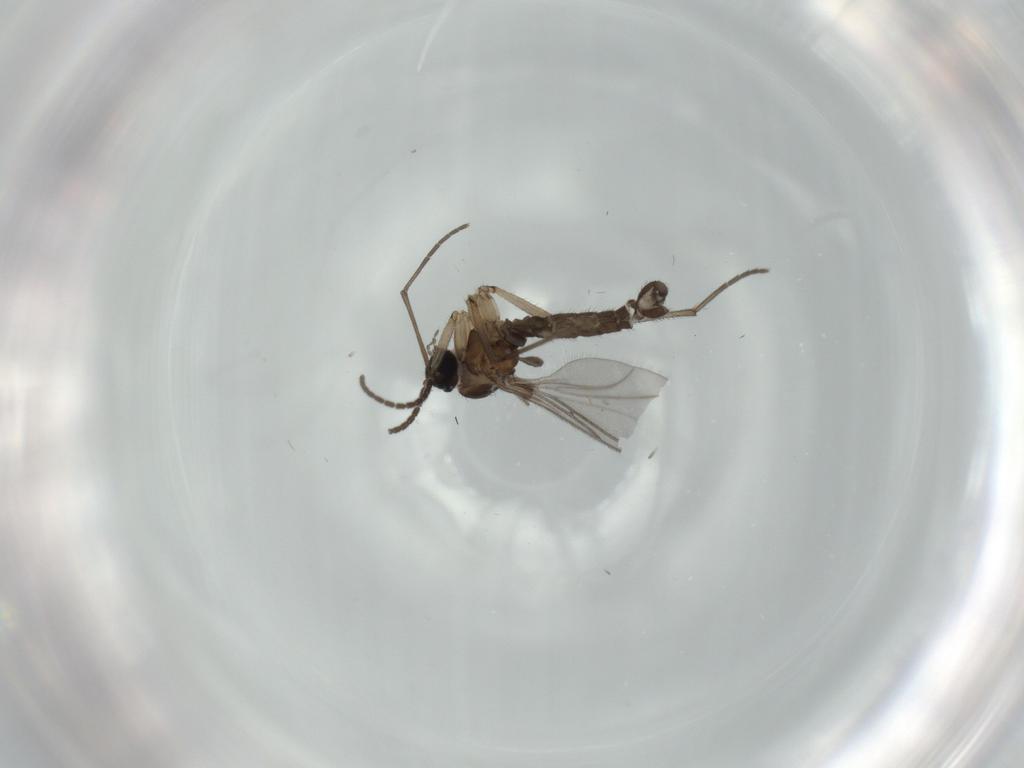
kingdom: Animalia
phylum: Arthropoda
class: Insecta
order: Diptera
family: Sciaridae
